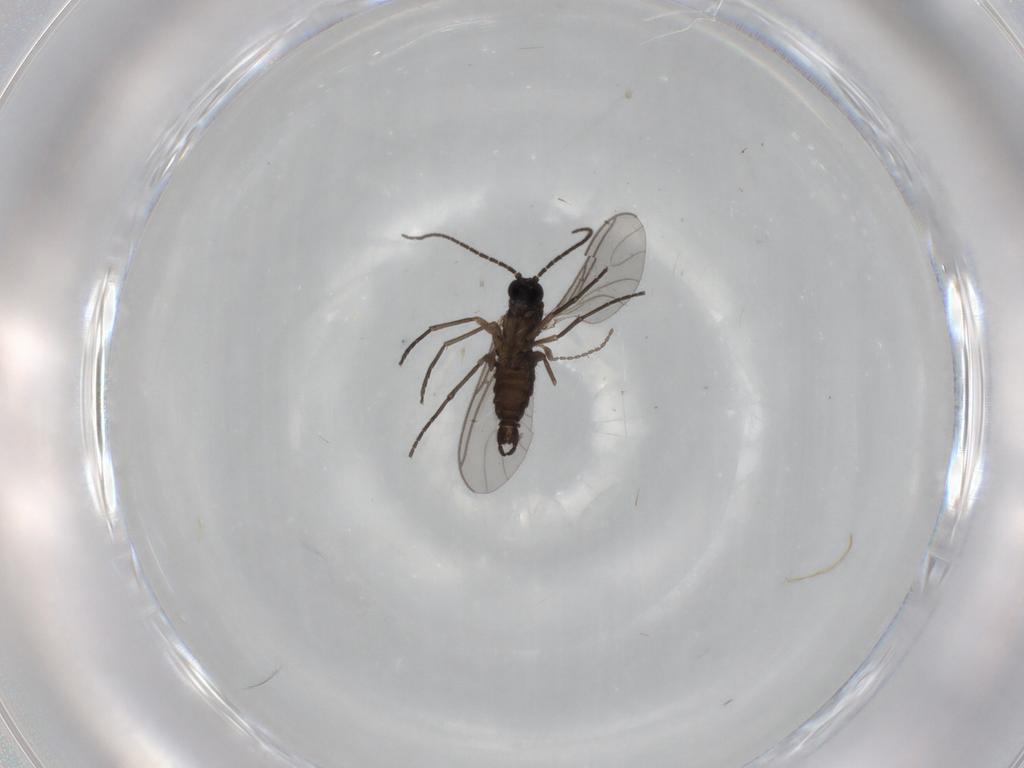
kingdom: Animalia
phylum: Arthropoda
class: Insecta
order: Diptera
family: Sciaridae
